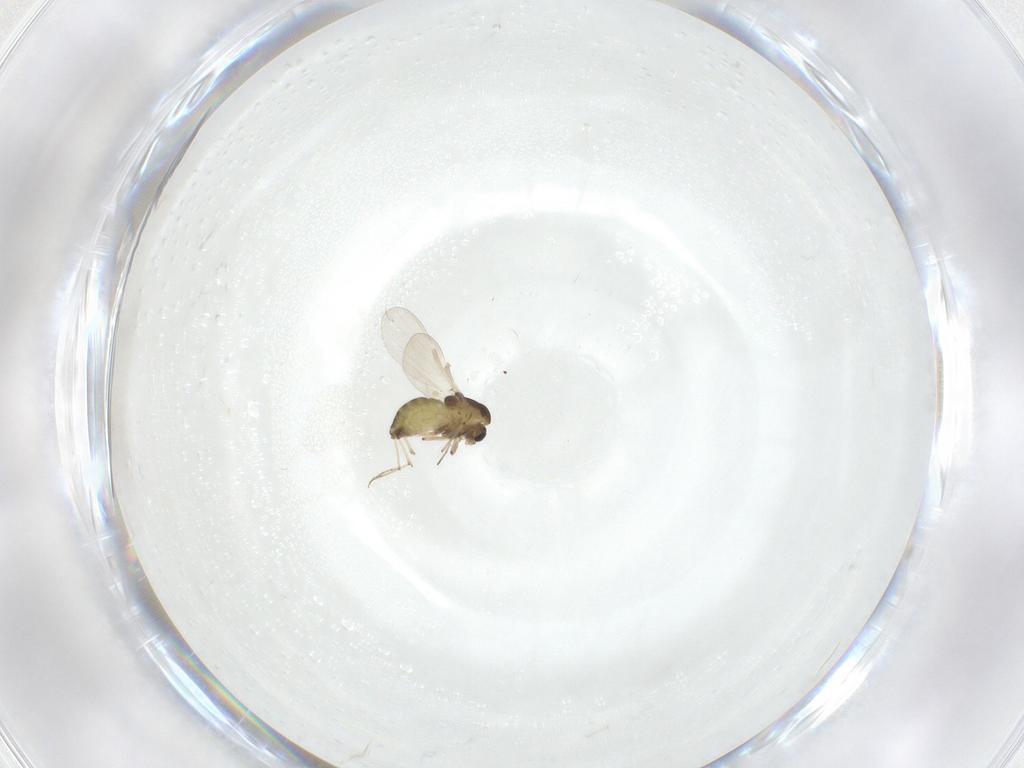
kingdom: Animalia
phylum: Arthropoda
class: Insecta
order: Diptera
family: Chironomidae
